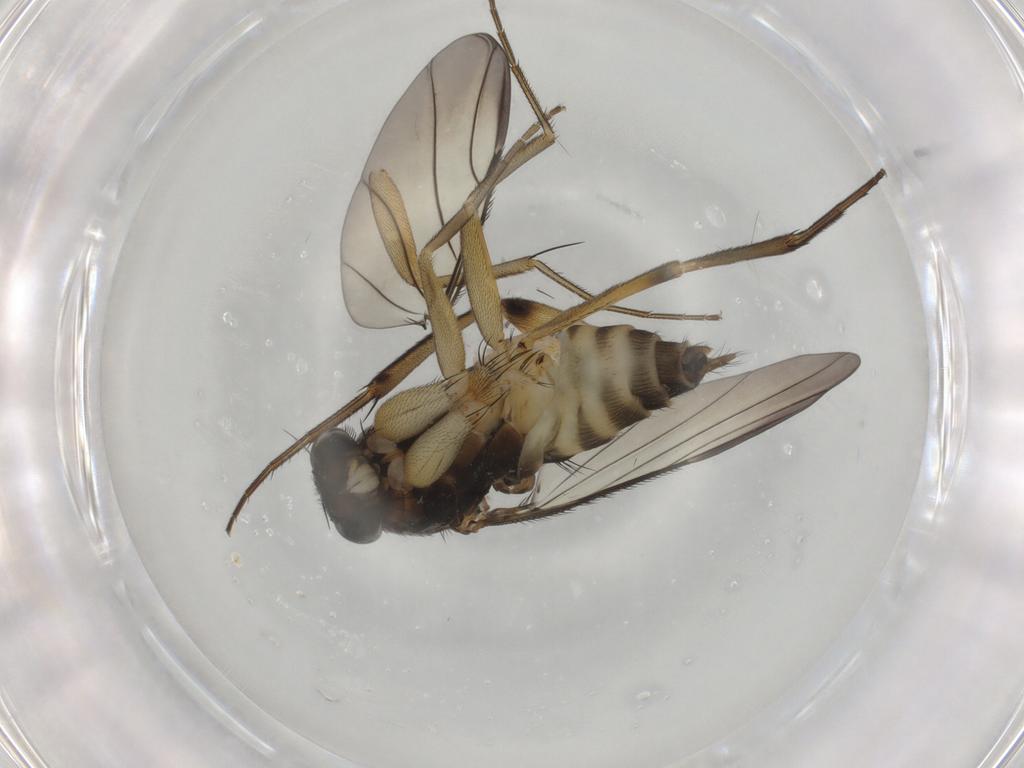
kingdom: Animalia
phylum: Arthropoda
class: Insecta
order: Diptera
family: Phoridae
